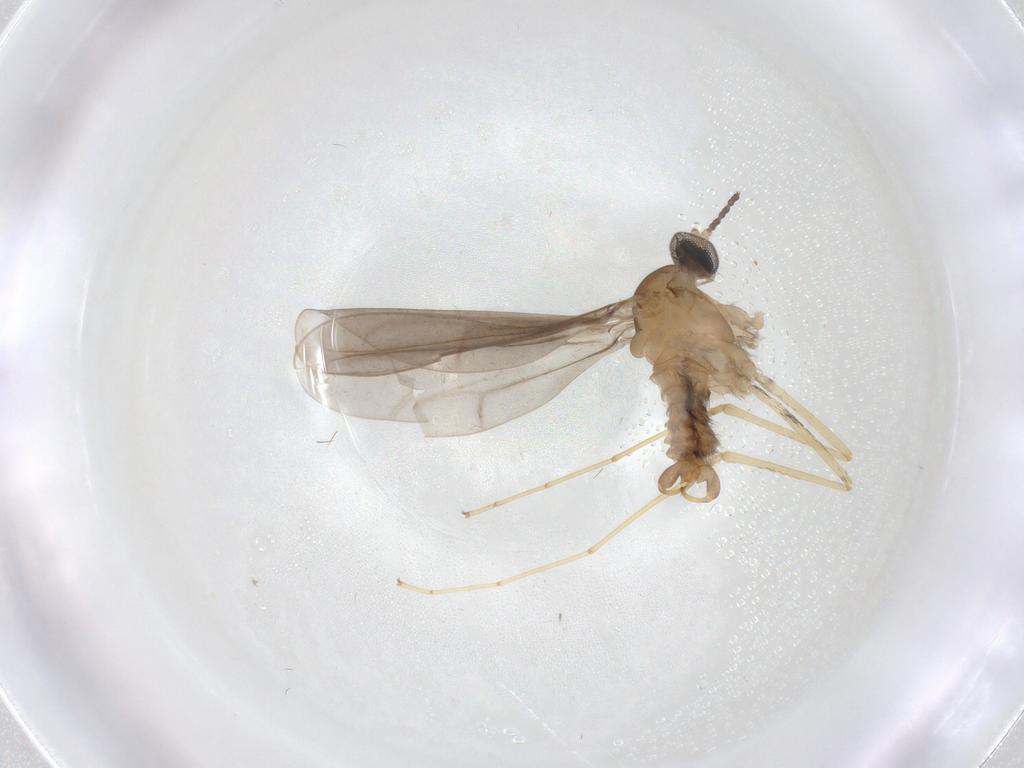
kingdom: Animalia
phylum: Arthropoda
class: Insecta
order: Diptera
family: Cecidomyiidae
